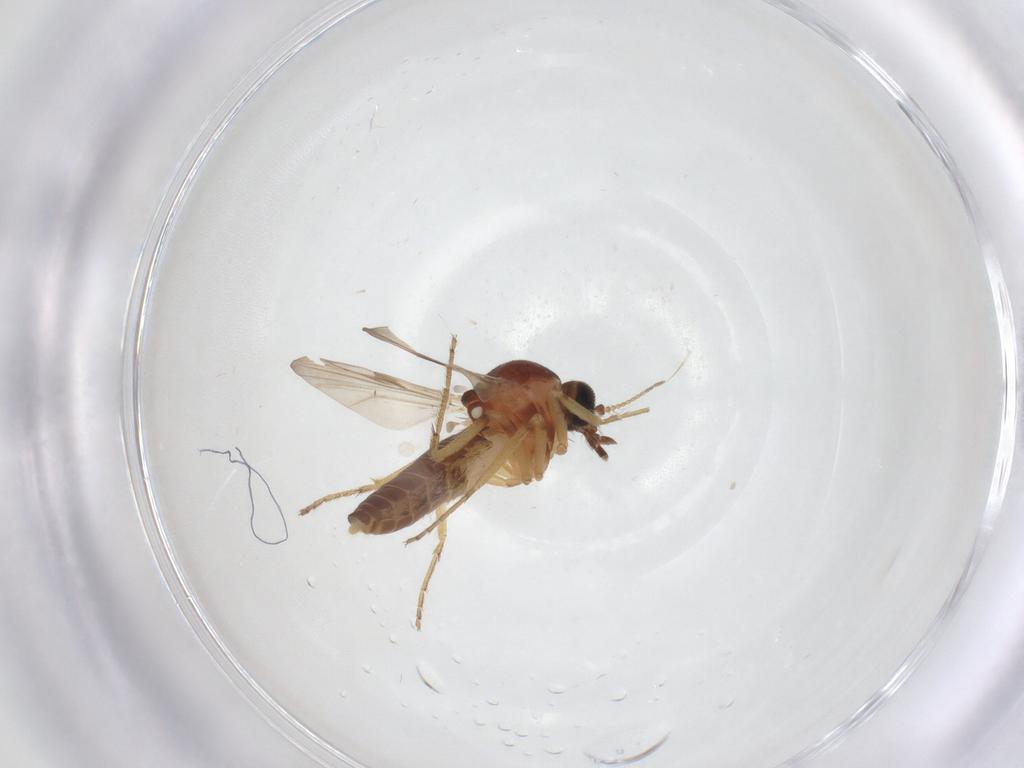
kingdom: Animalia
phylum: Arthropoda
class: Insecta
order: Diptera
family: Ceratopogonidae
